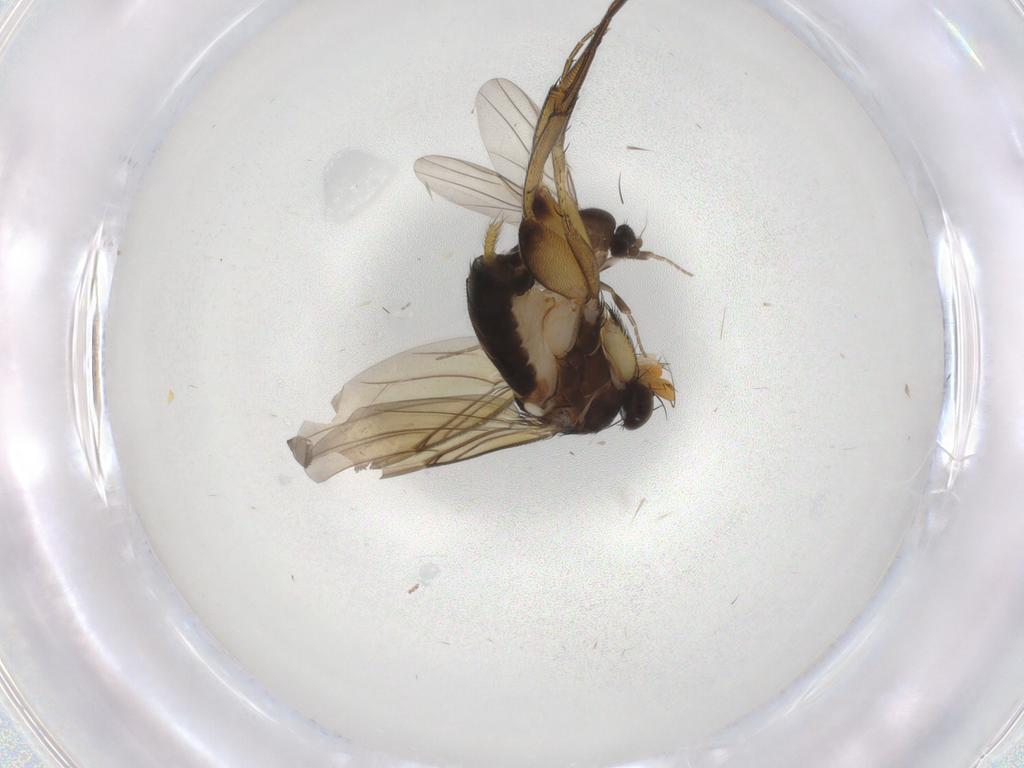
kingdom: Animalia
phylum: Arthropoda
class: Insecta
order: Diptera
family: Phoridae
